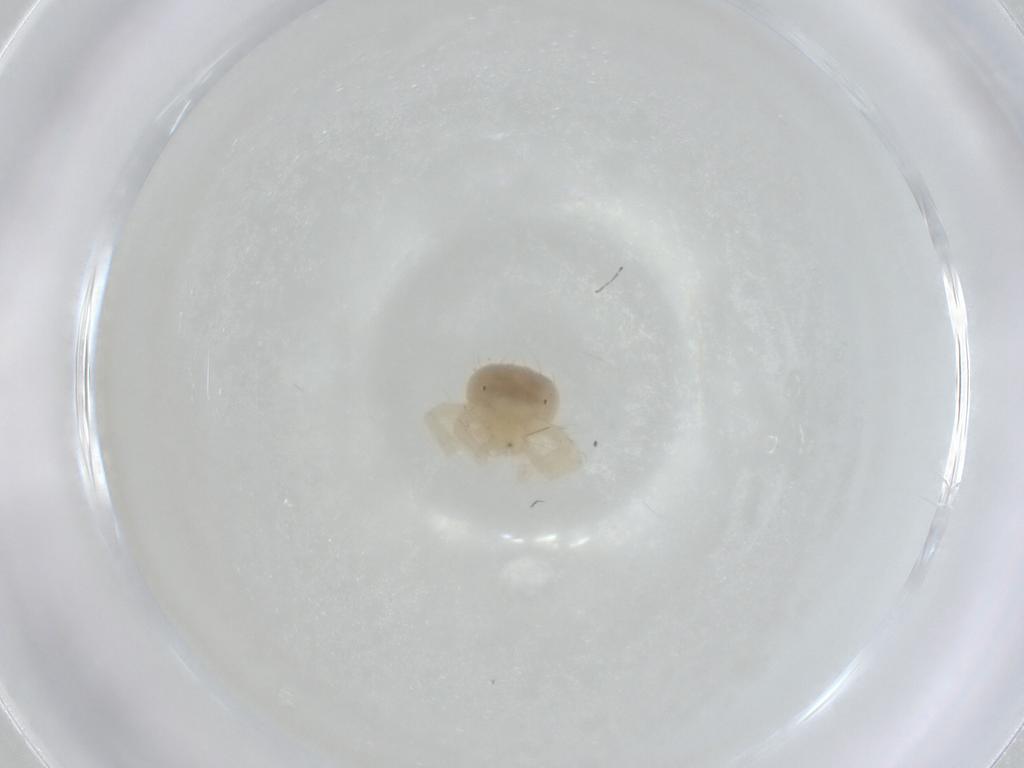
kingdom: Animalia
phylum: Arthropoda
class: Arachnida
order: Trombidiformes
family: Anystidae
